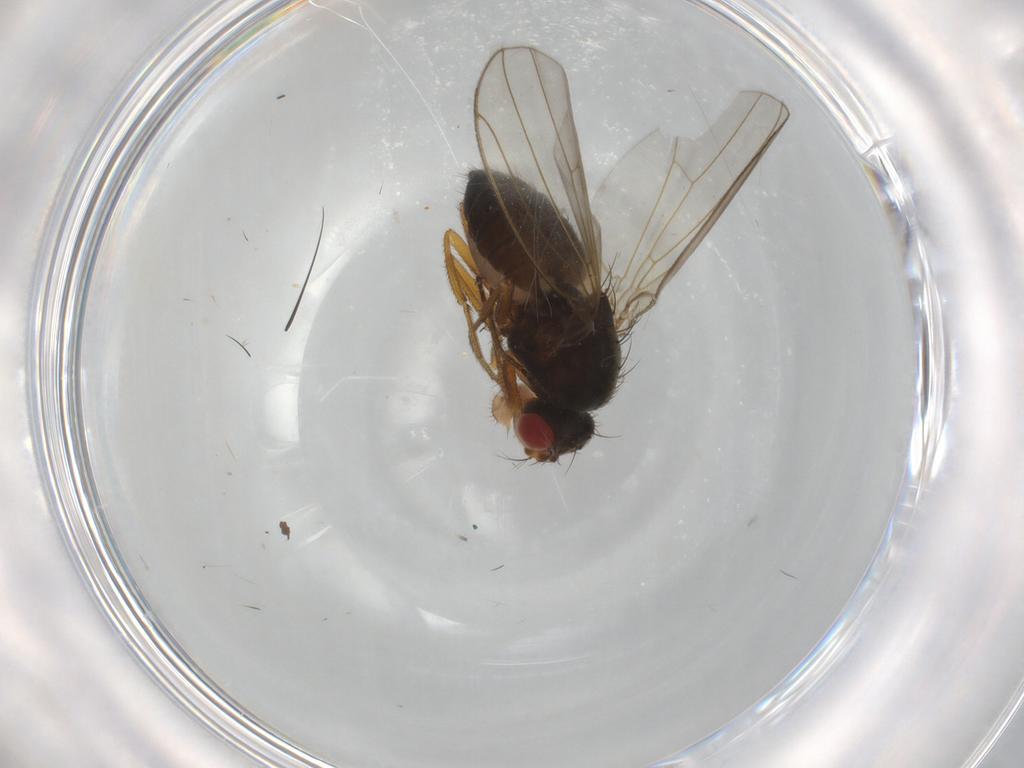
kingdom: Animalia
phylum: Arthropoda
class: Insecta
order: Diptera
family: Drosophilidae
